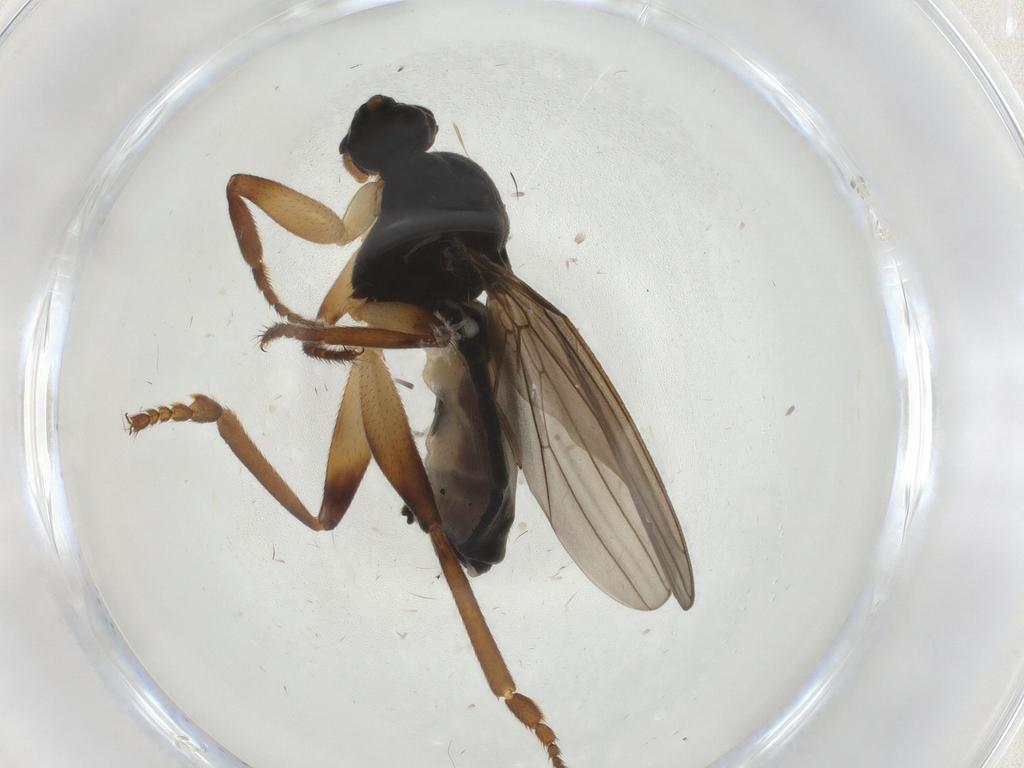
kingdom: Animalia
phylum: Arthropoda
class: Insecta
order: Diptera
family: Sphaeroceridae
